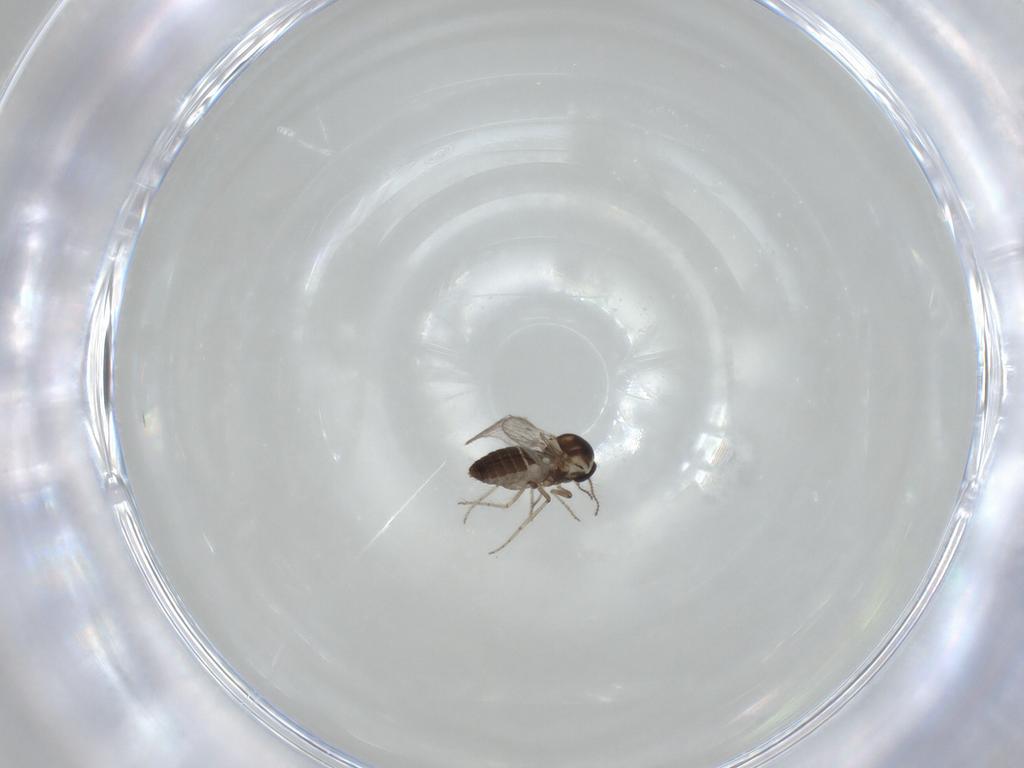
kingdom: Animalia
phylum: Arthropoda
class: Insecta
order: Diptera
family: Ceratopogonidae
